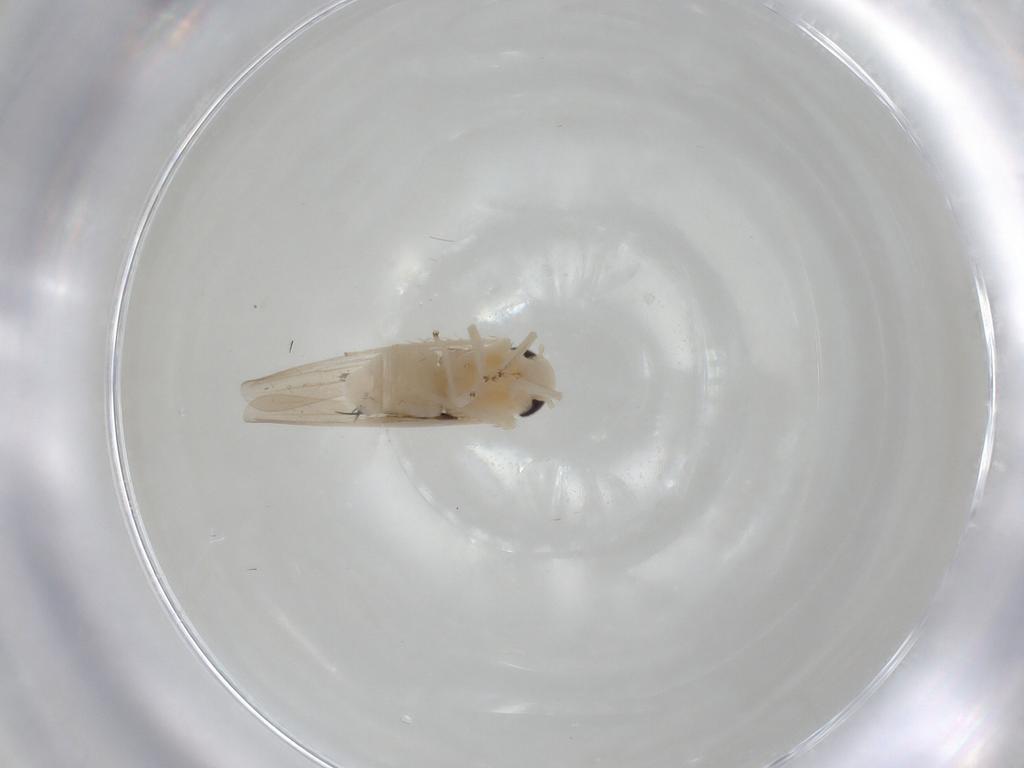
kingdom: Animalia
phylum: Arthropoda
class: Insecta
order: Hemiptera
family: Cicadellidae
